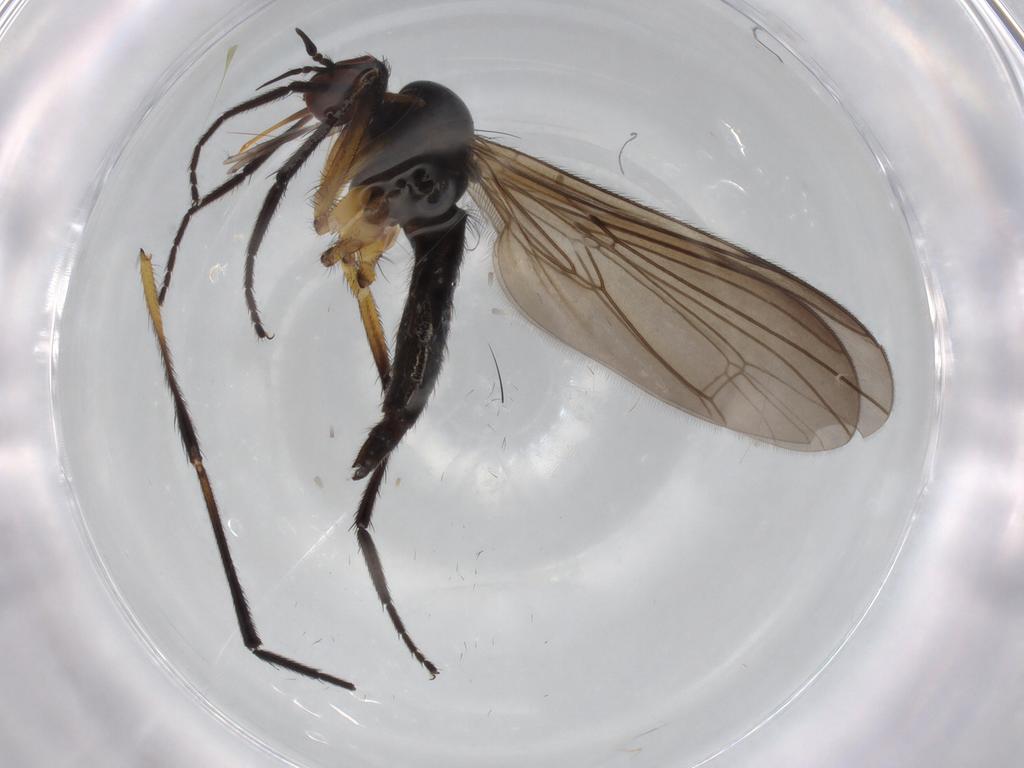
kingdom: Animalia
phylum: Arthropoda
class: Insecta
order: Diptera
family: Empididae
